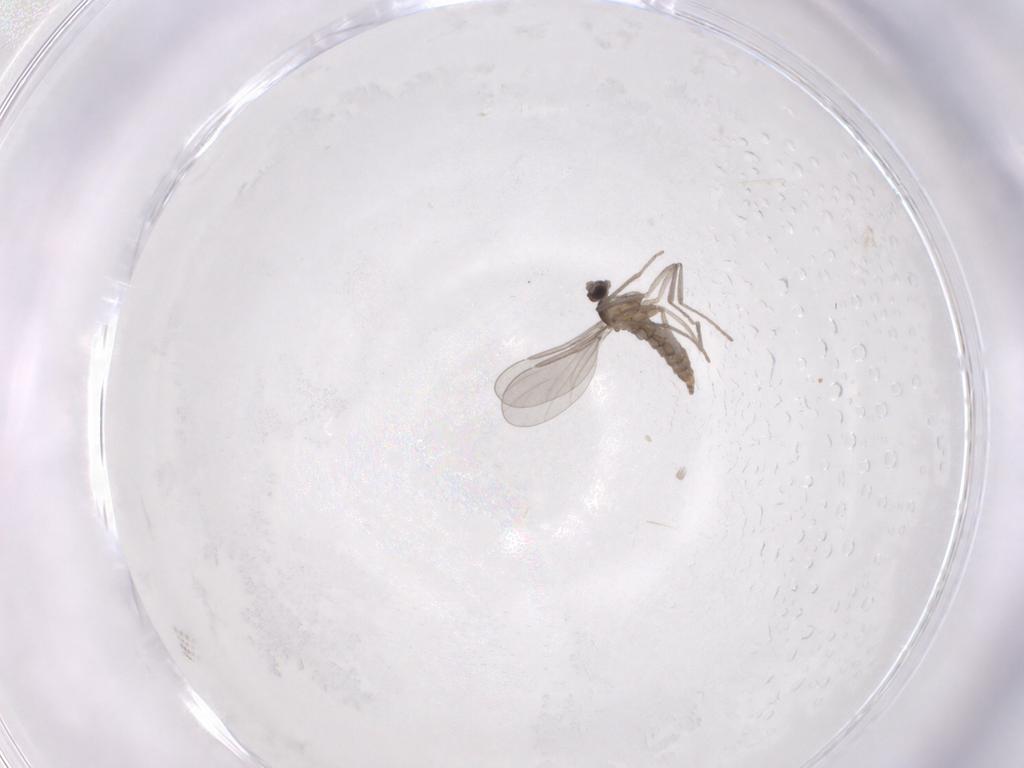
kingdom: Animalia
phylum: Arthropoda
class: Insecta
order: Diptera
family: Cecidomyiidae
